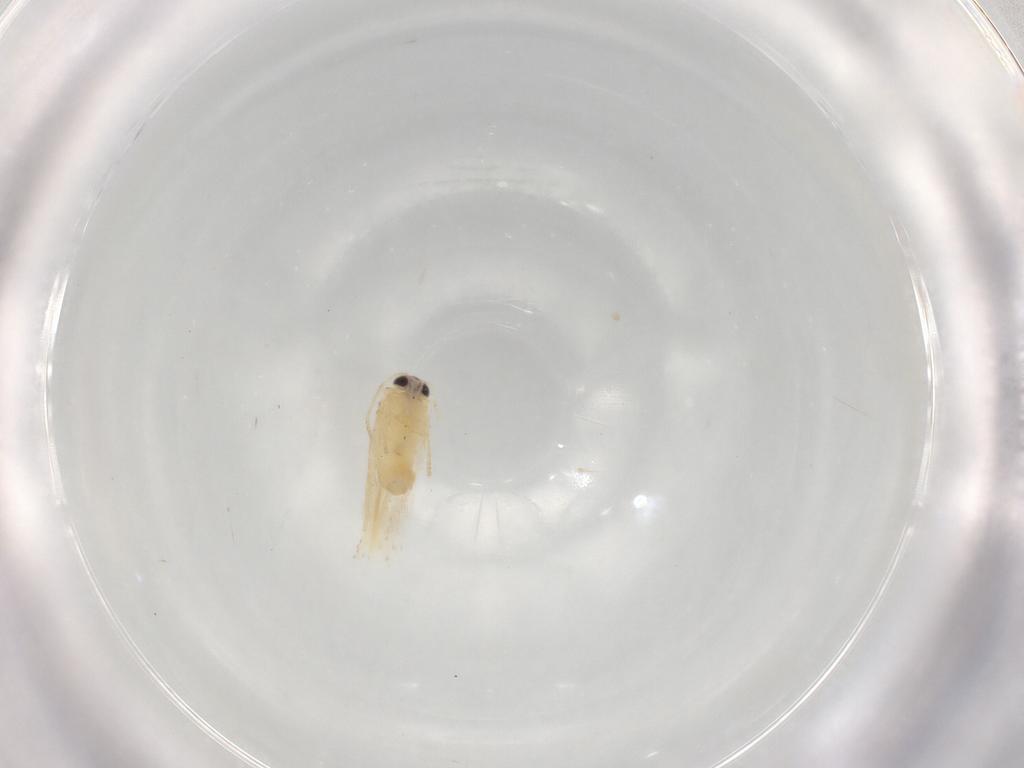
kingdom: Animalia
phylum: Arthropoda
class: Insecta
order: Lepidoptera
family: Nepticulidae
